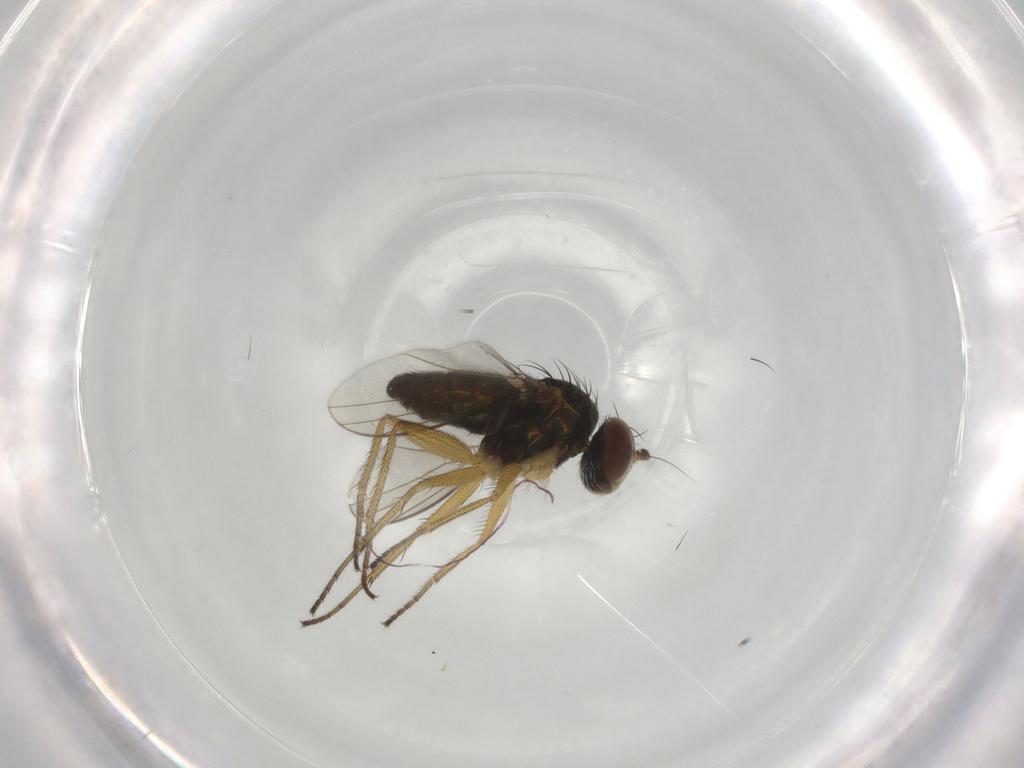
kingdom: Animalia
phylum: Arthropoda
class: Insecta
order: Diptera
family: Dolichopodidae
